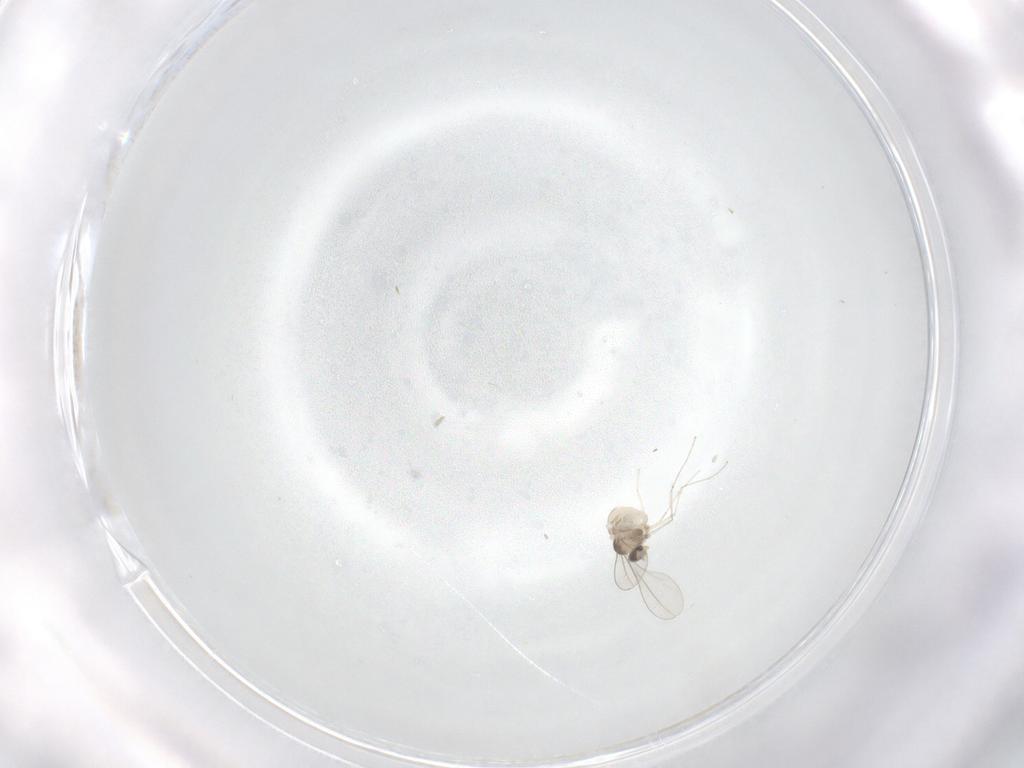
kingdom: Animalia
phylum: Arthropoda
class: Insecta
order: Diptera
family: Cecidomyiidae
